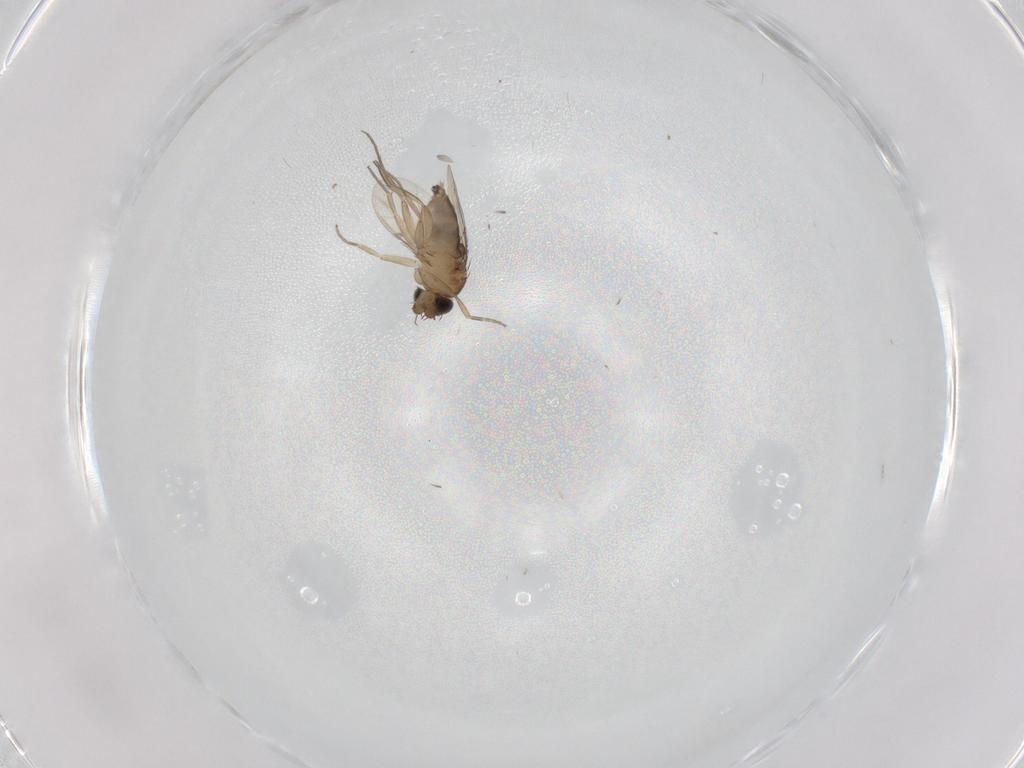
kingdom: Animalia
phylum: Arthropoda
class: Insecta
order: Diptera
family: Phoridae
